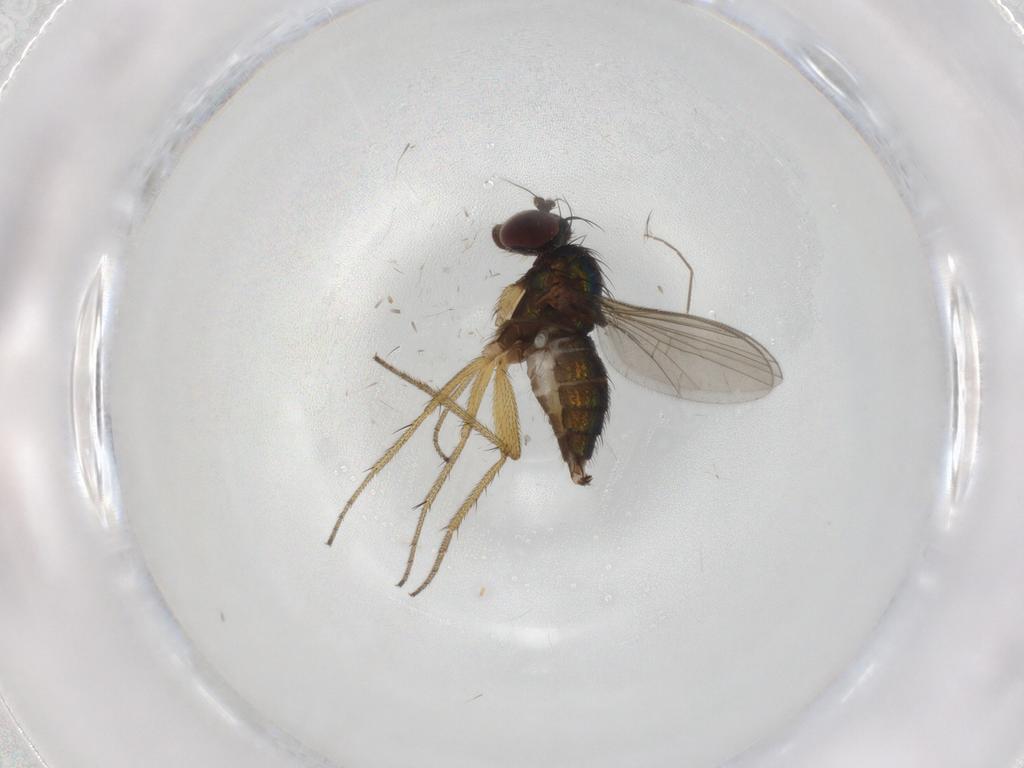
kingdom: Animalia
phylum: Arthropoda
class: Insecta
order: Diptera
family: Dolichopodidae
